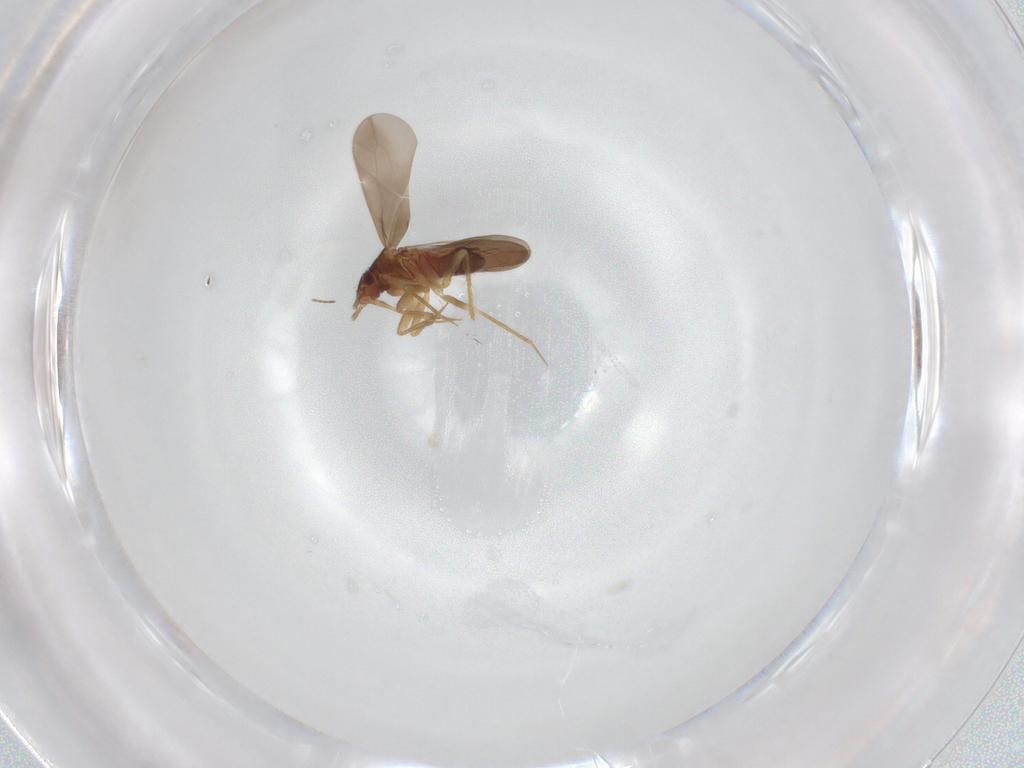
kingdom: Animalia
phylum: Arthropoda
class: Insecta
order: Hemiptera
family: Ceratocombidae
